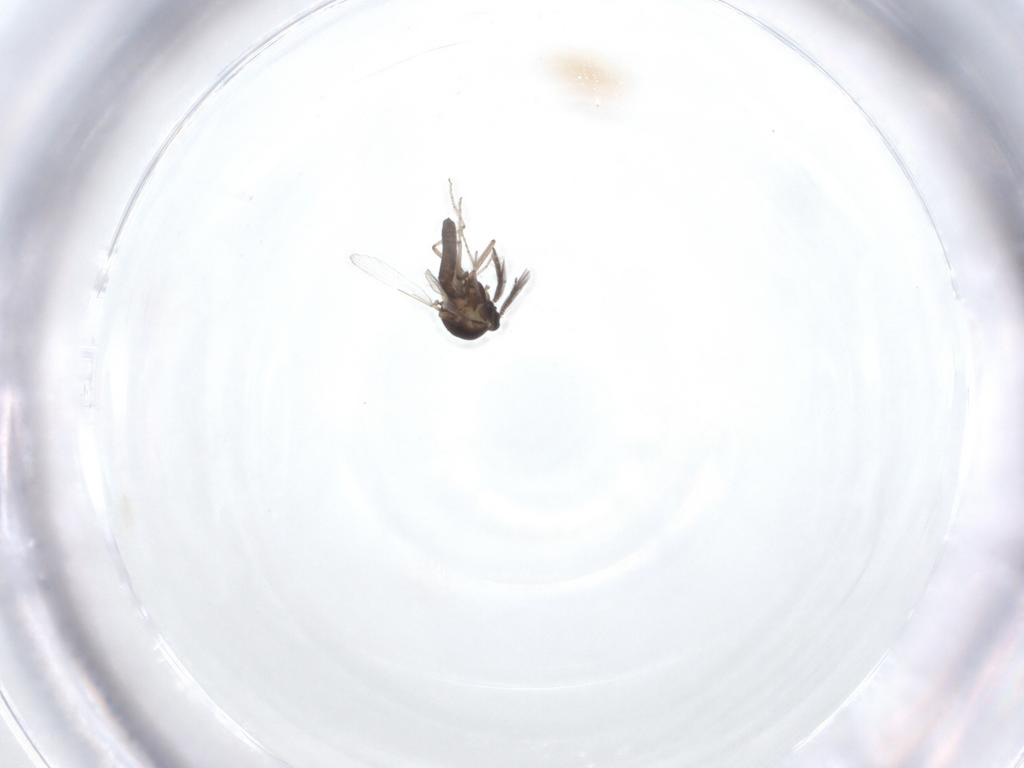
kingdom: Animalia
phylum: Arthropoda
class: Insecta
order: Diptera
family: Ceratopogonidae
